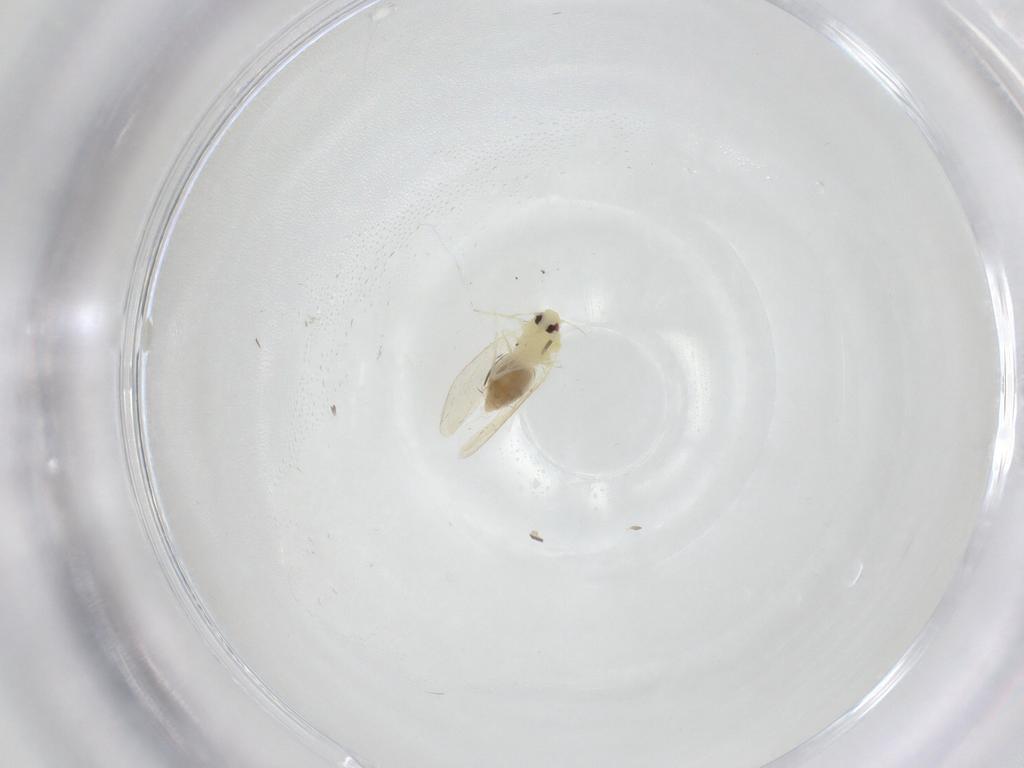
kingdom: Animalia
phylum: Arthropoda
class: Insecta
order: Hemiptera
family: Aleyrodidae
